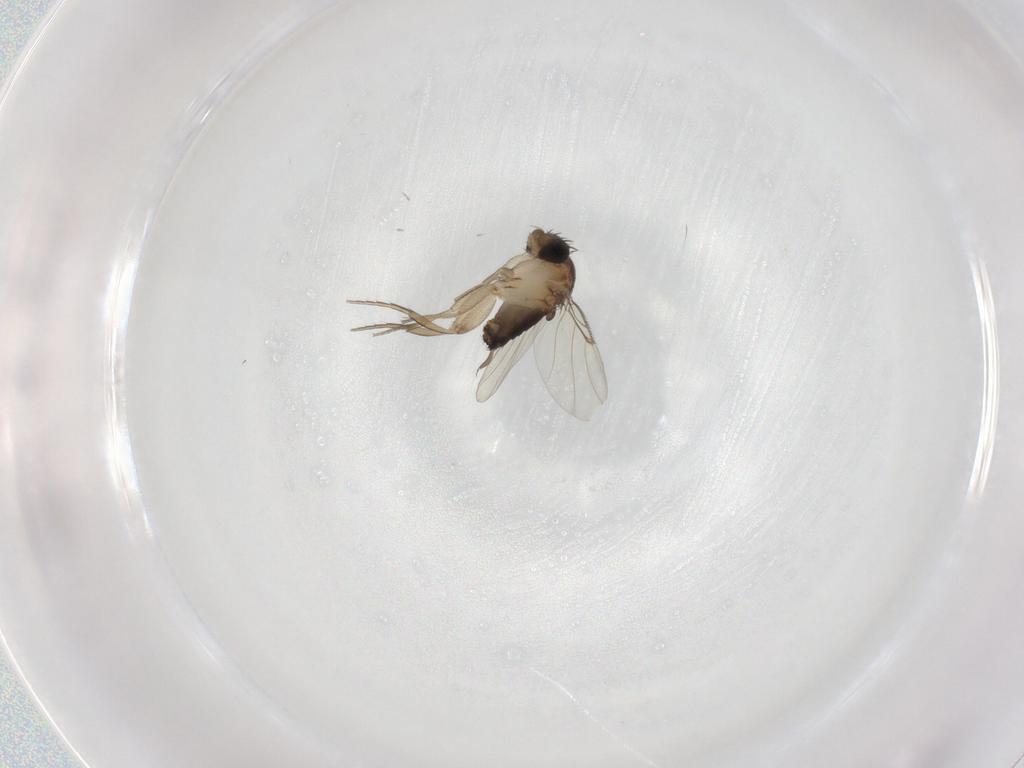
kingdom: Animalia
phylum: Arthropoda
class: Insecta
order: Diptera
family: Chironomidae
